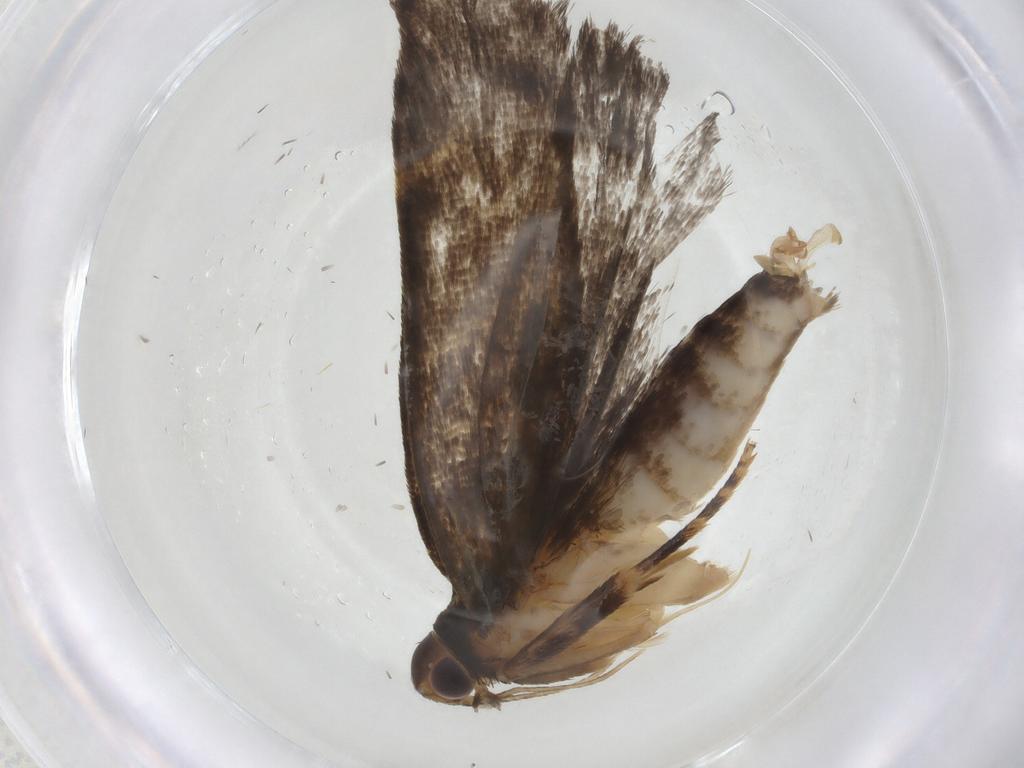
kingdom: Animalia
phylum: Arthropoda
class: Insecta
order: Lepidoptera
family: Gelechiidae
